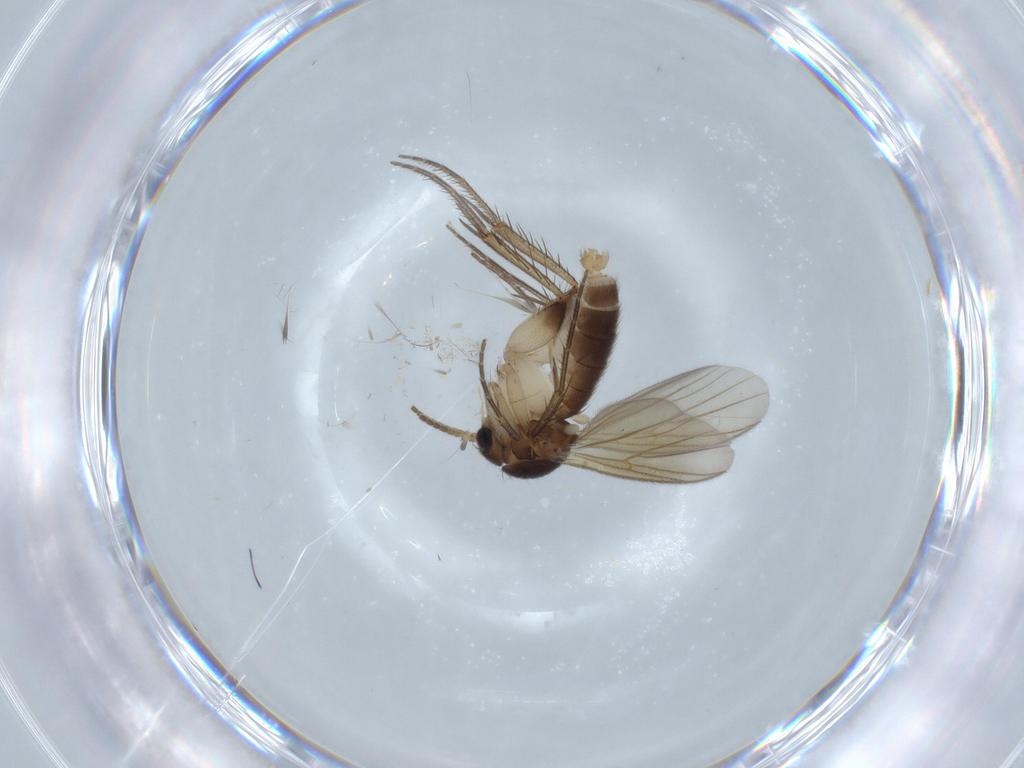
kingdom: Animalia
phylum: Arthropoda
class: Insecta
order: Diptera
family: Cecidomyiidae
